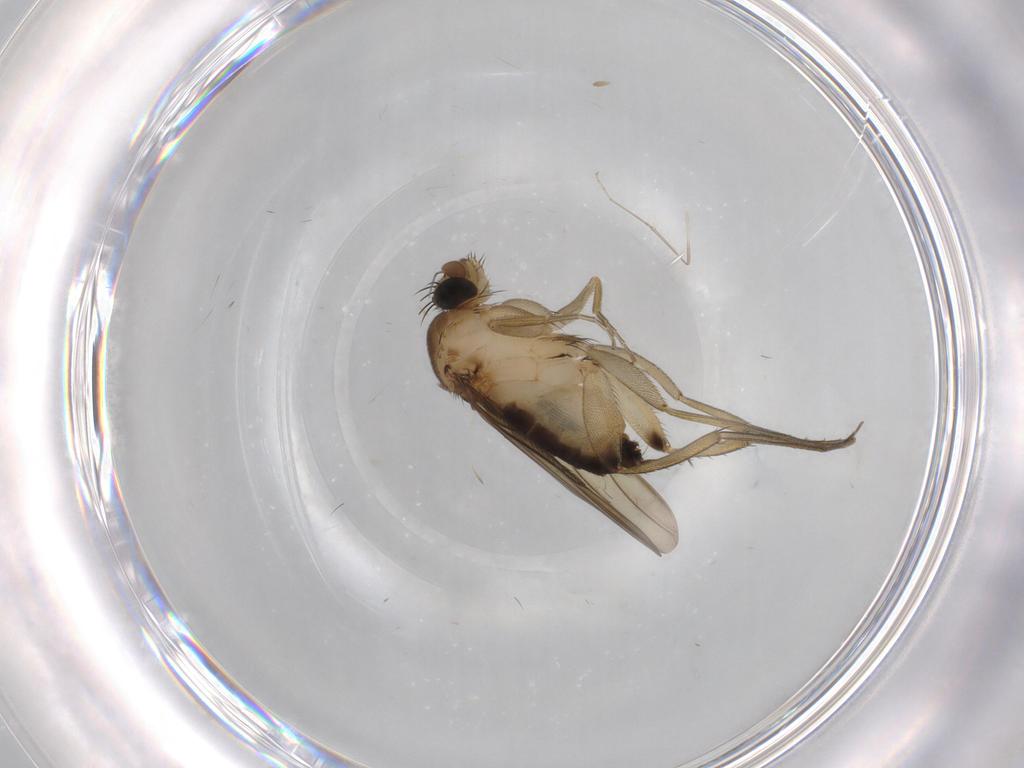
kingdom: Animalia
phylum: Arthropoda
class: Insecta
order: Diptera
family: Phoridae
